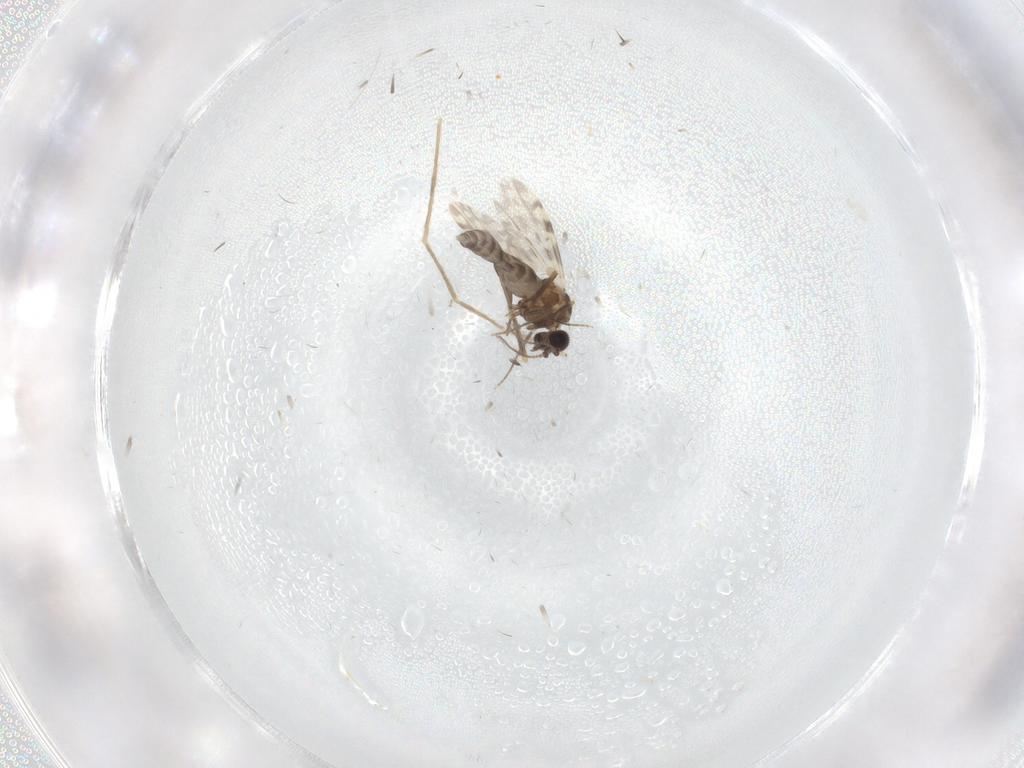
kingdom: Animalia
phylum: Arthropoda
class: Insecta
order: Diptera
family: Ceratopogonidae
